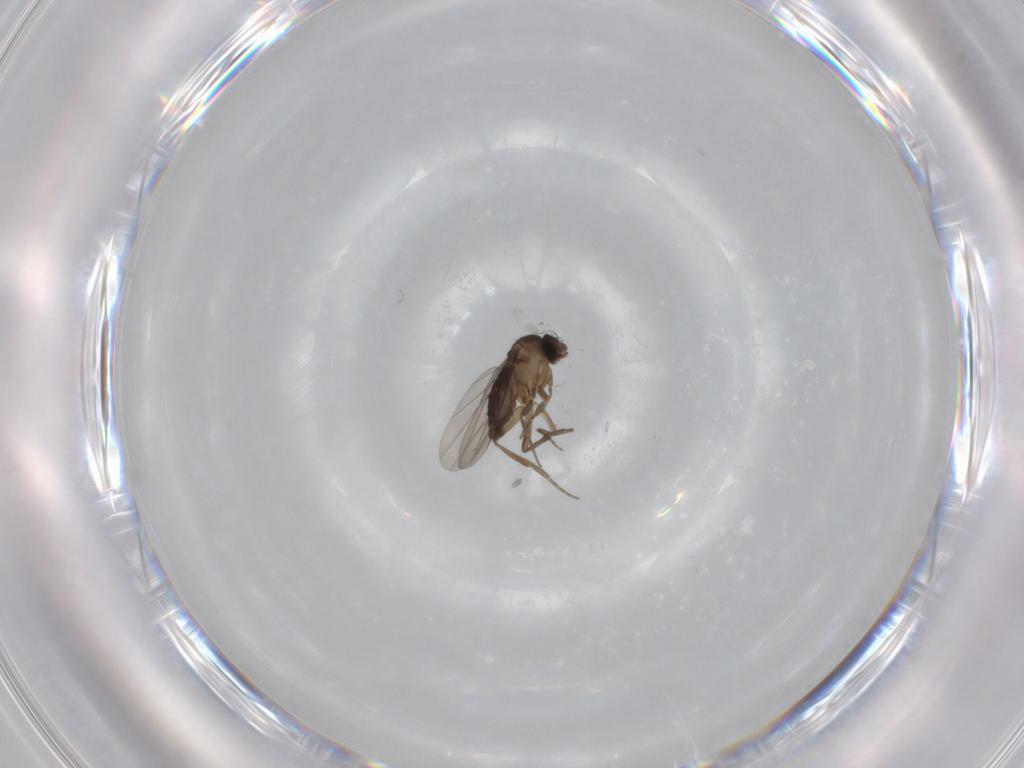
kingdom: Animalia
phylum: Arthropoda
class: Insecta
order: Diptera
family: Phoridae
